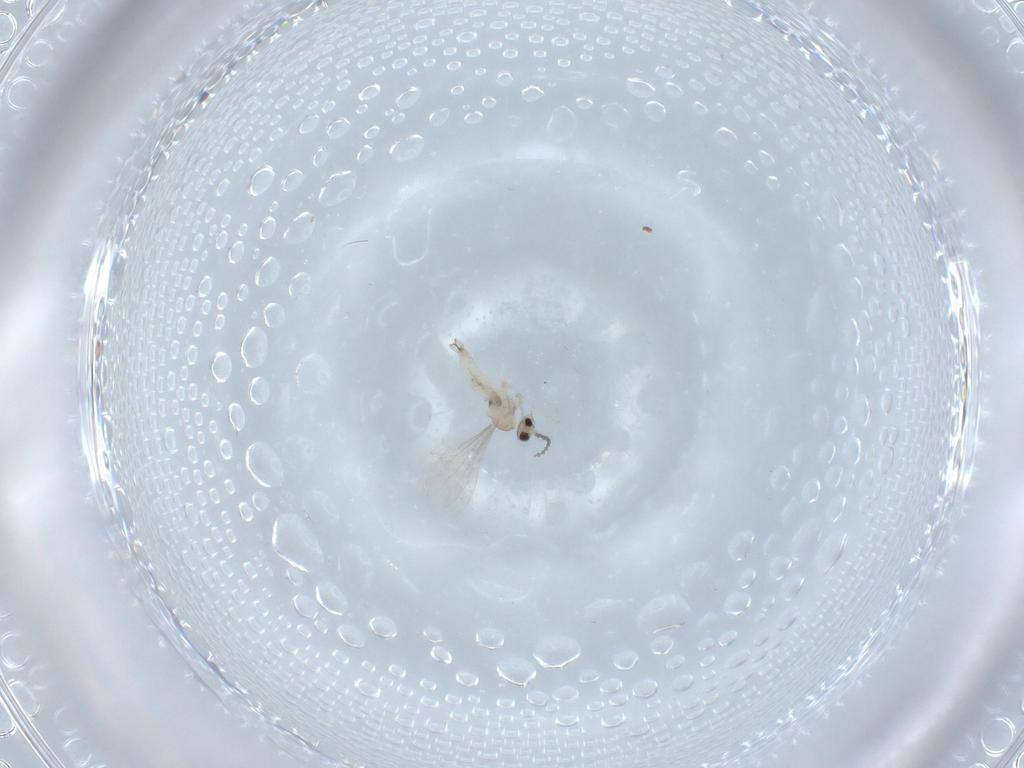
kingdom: Animalia
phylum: Arthropoda
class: Insecta
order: Diptera
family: Cecidomyiidae
